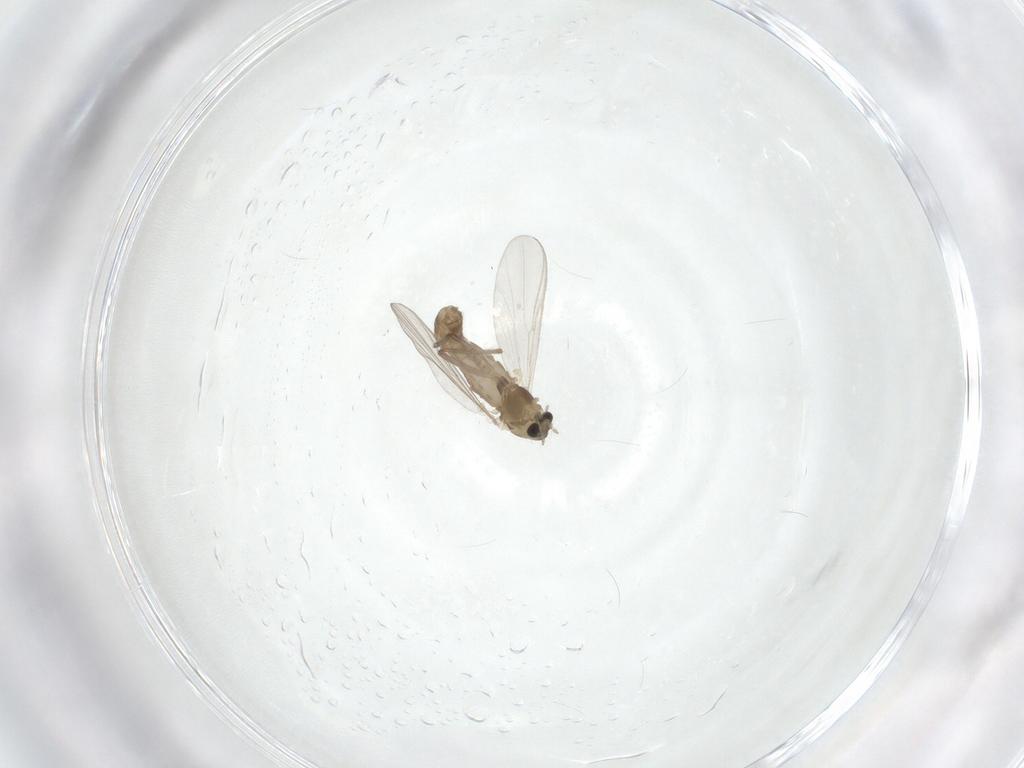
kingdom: Animalia
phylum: Arthropoda
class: Insecta
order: Diptera
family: Chironomidae
